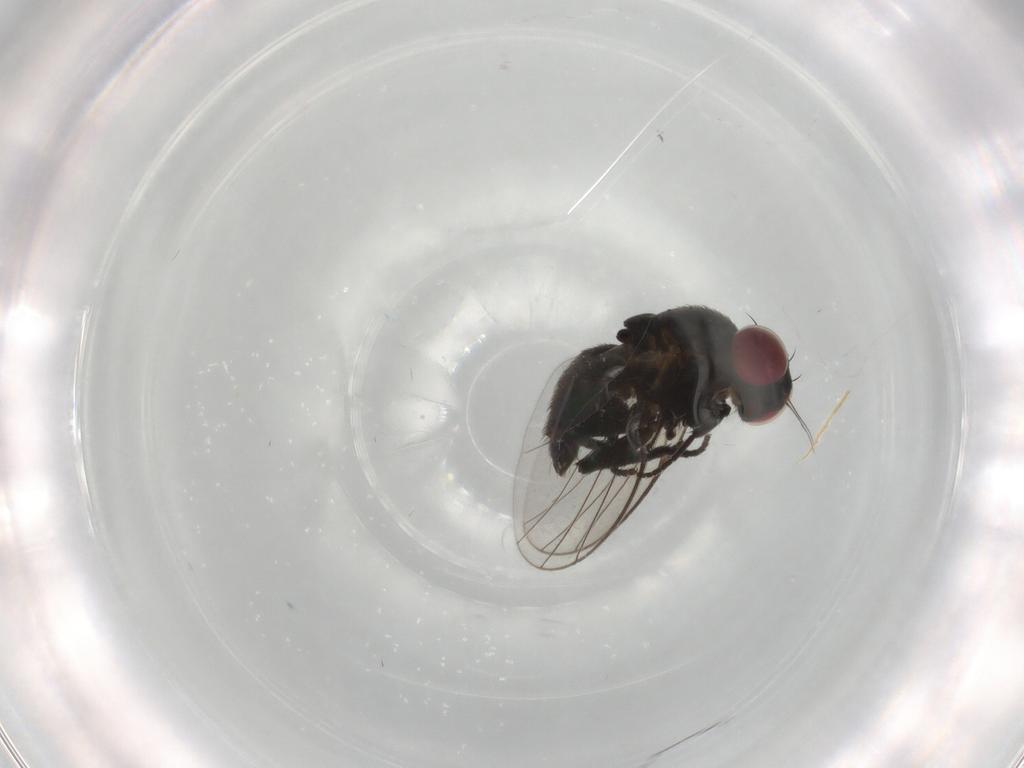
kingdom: Animalia
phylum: Arthropoda
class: Insecta
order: Diptera
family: Agromyzidae
